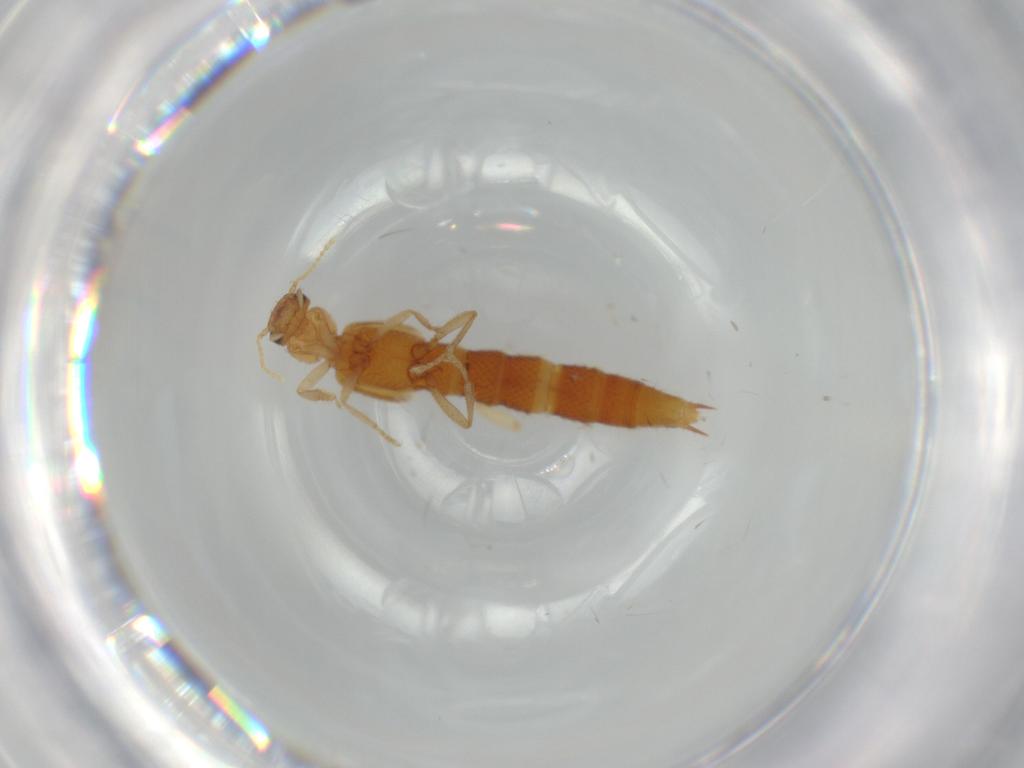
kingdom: Animalia
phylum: Arthropoda
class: Insecta
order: Coleoptera
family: Staphylinidae
